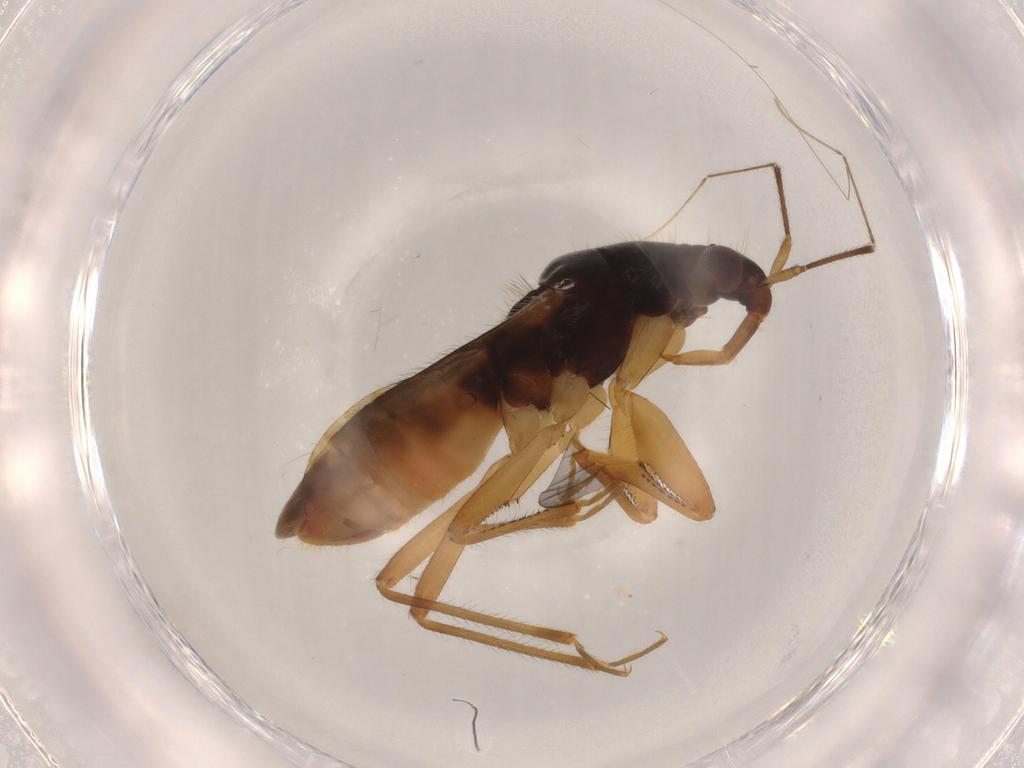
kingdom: Animalia
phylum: Arthropoda
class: Insecta
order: Hemiptera
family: Nabidae
